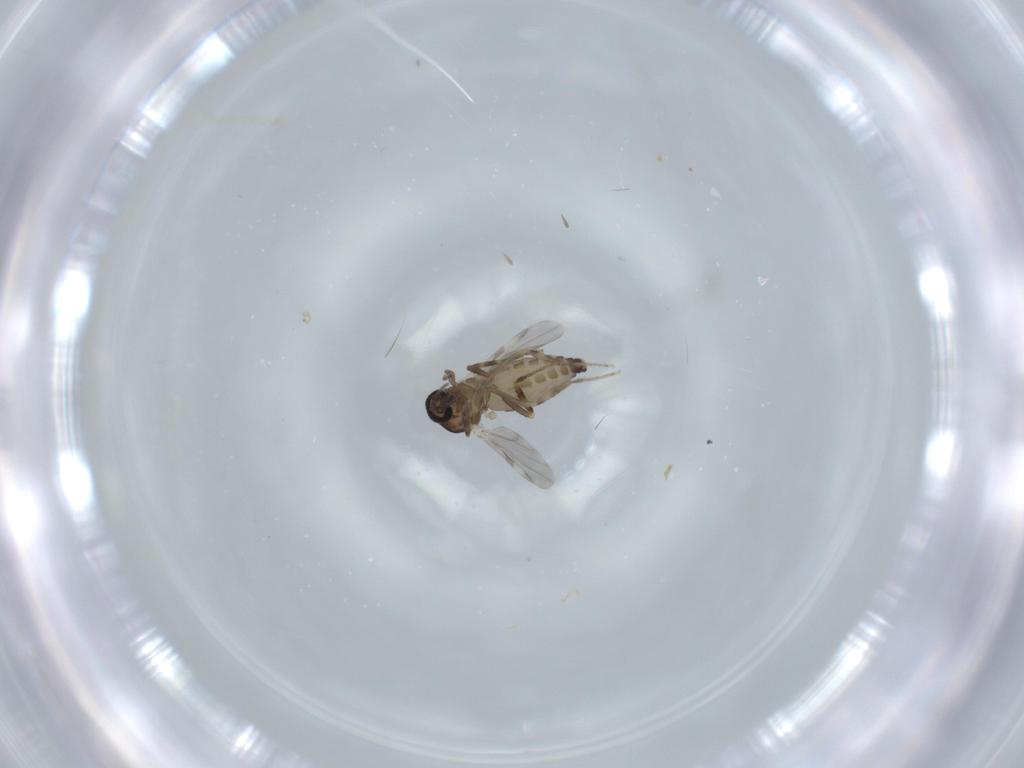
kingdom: Animalia
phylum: Arthropoda
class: Insecta
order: Diptera
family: Ceratopogonidae
